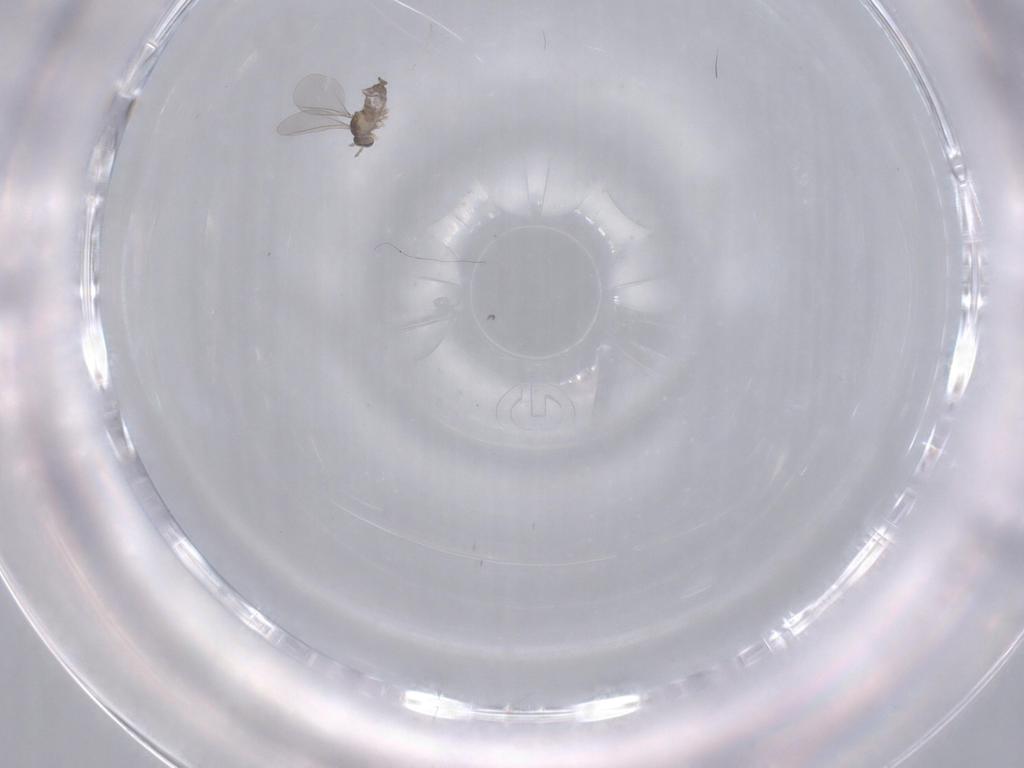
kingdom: Animalia
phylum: Arthropoda
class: Insecta
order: Diptera
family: Cecidomyiidae
